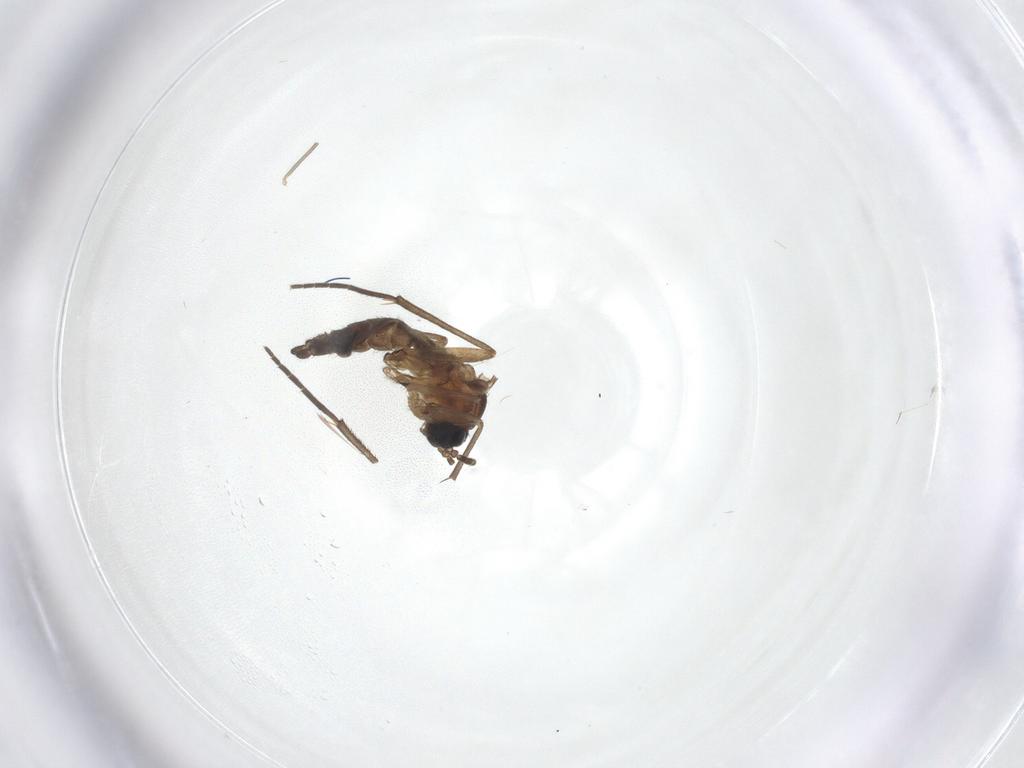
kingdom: Animalia
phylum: Arthropoda
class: Insecta
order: Diptera
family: Anisopodidae
